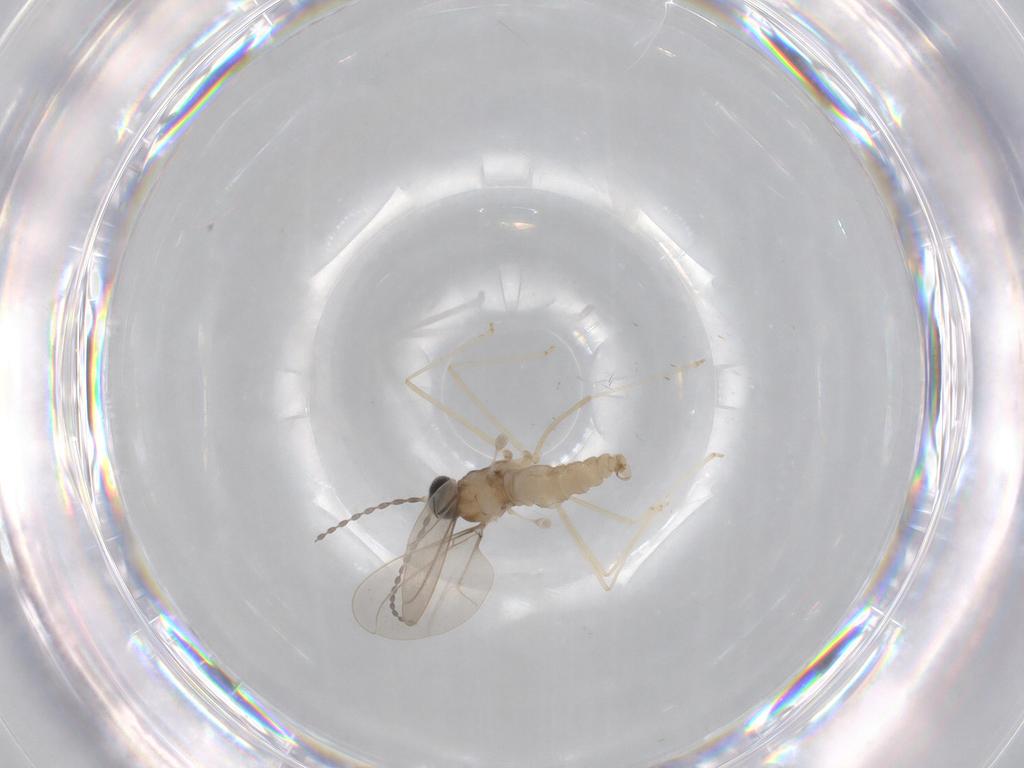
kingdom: Animalia
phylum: Arthropoda
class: Insecta
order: Diptera
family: Cecidomyiidae
